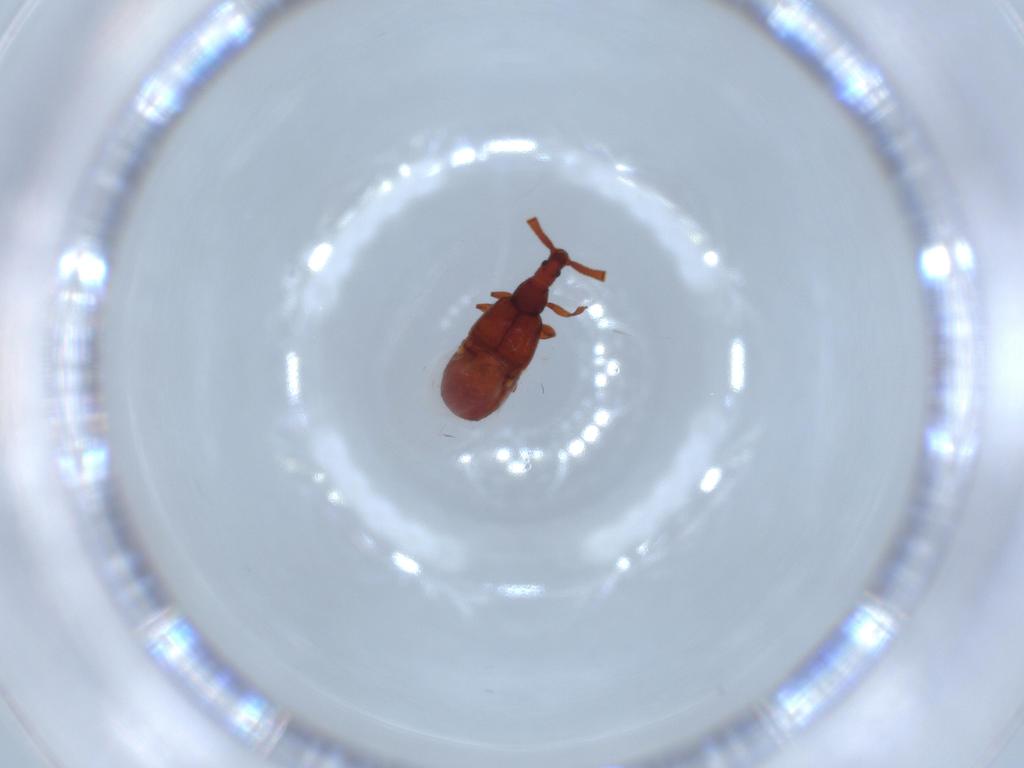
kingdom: Animalia
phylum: Arthropoda
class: Insecta
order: Coleoptera
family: Staphylinidae
